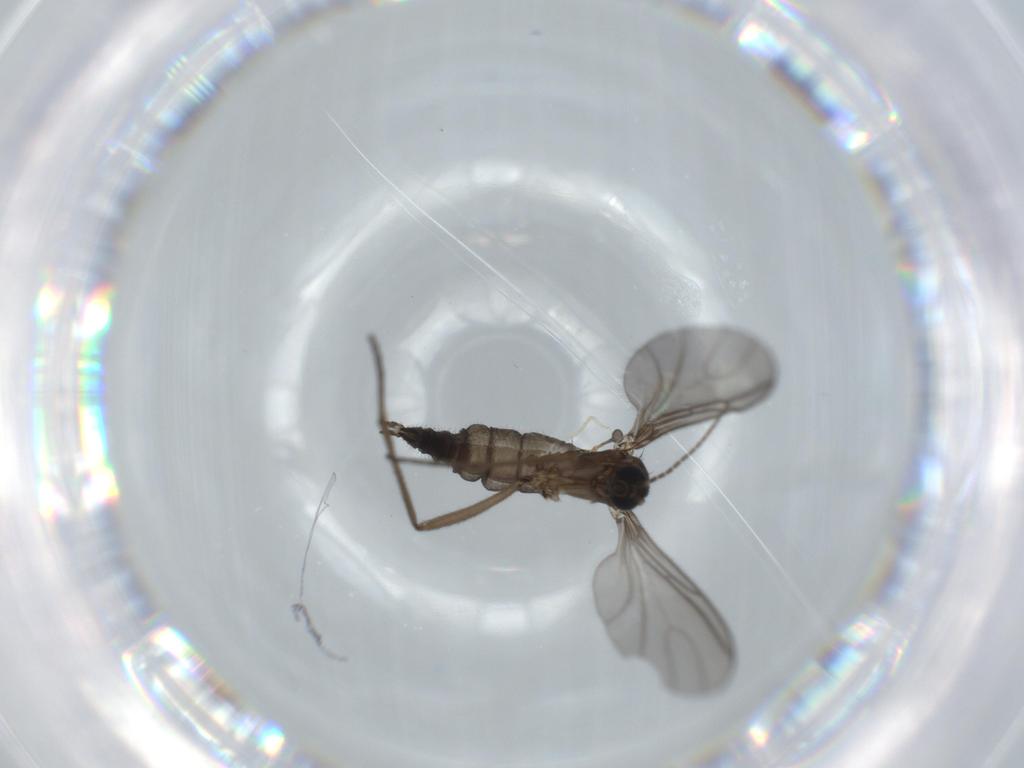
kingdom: Animalia
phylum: Arthropoda
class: Insecta
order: Diptera
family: Sciaridae
